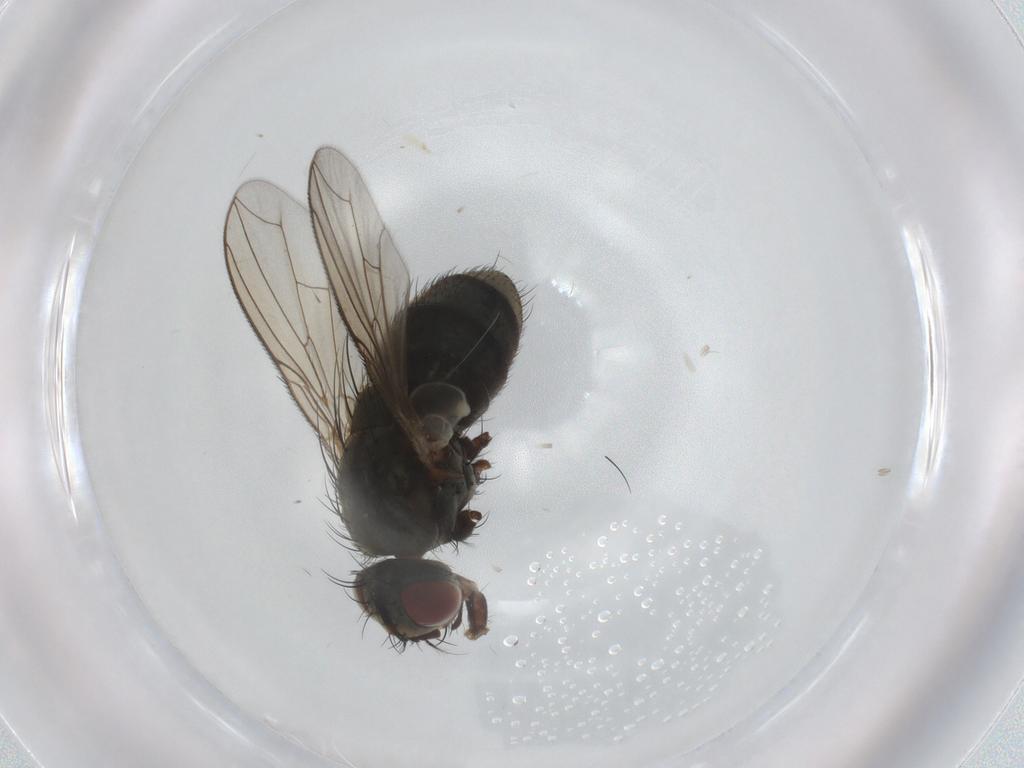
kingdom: Animalia
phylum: Arthropoda
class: Insecta
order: Diptera
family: Sarcophagidae
